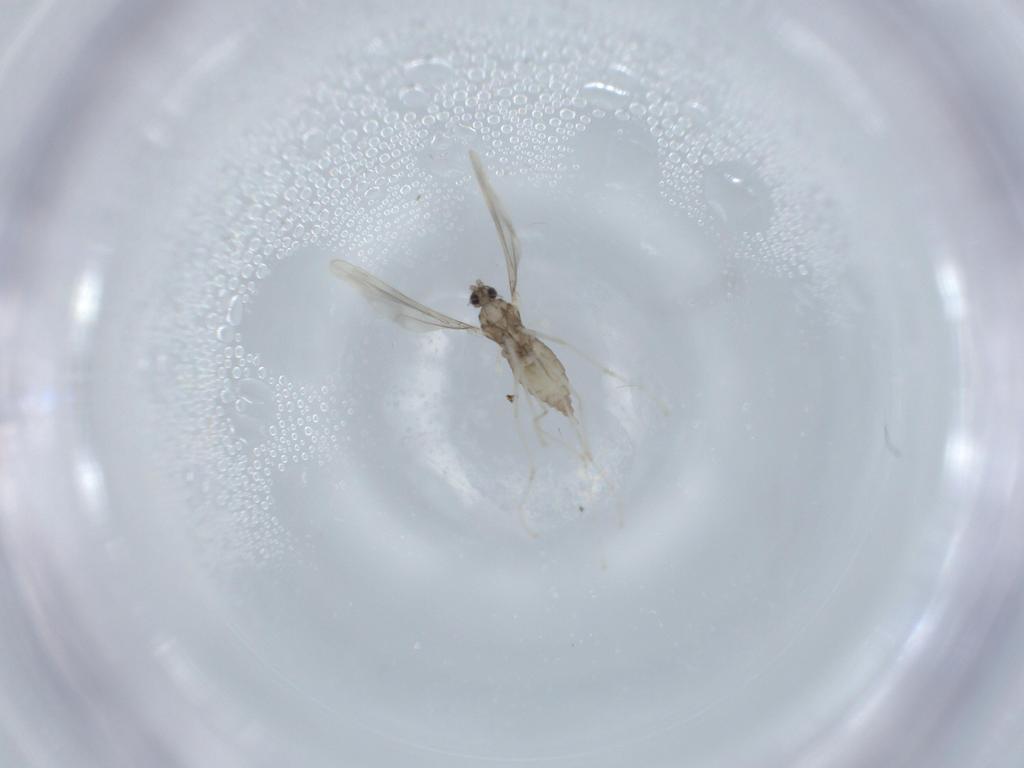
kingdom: Animalia
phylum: Arthropoda
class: Insecta
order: Diptera
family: Cecidomyiidae
